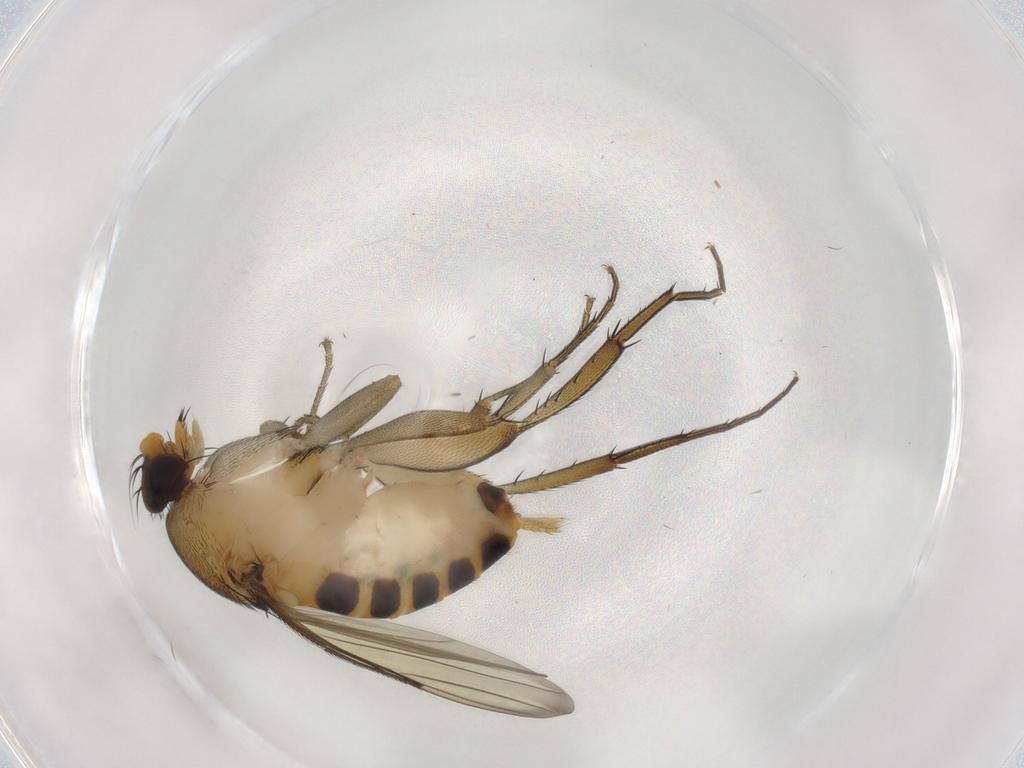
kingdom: Animalia
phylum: Arthropoda
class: Insecta
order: Diptera
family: Phoridae
